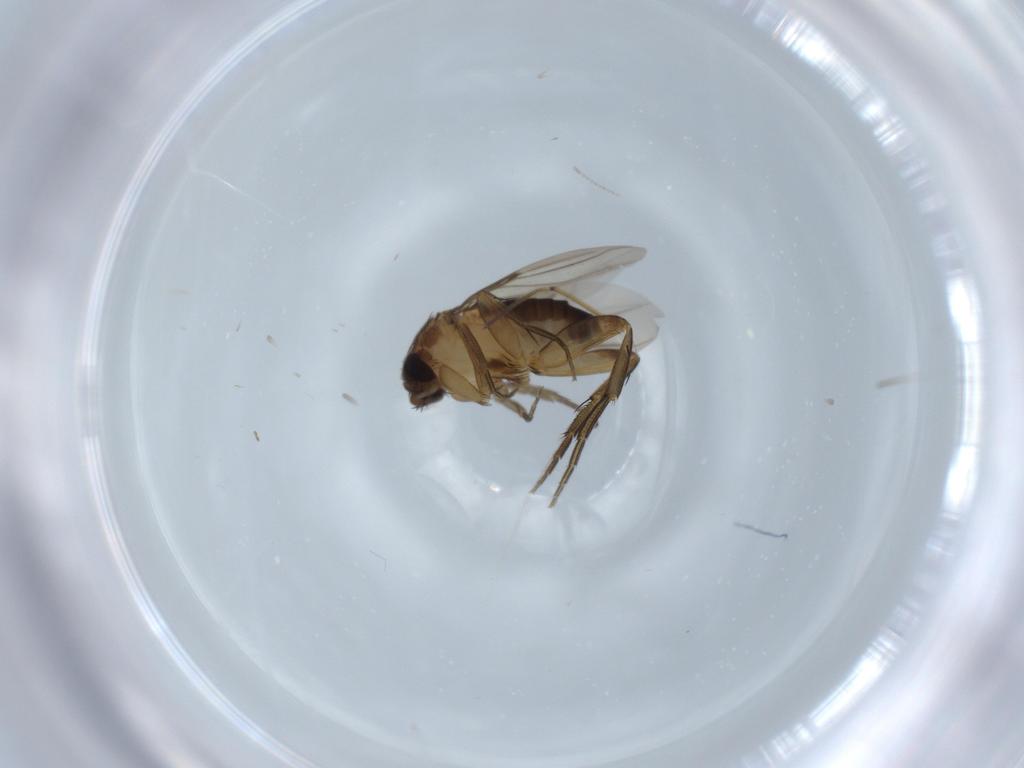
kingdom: Animalia
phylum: Arthropoda
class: Insecta
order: Diptera
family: Phoridae
